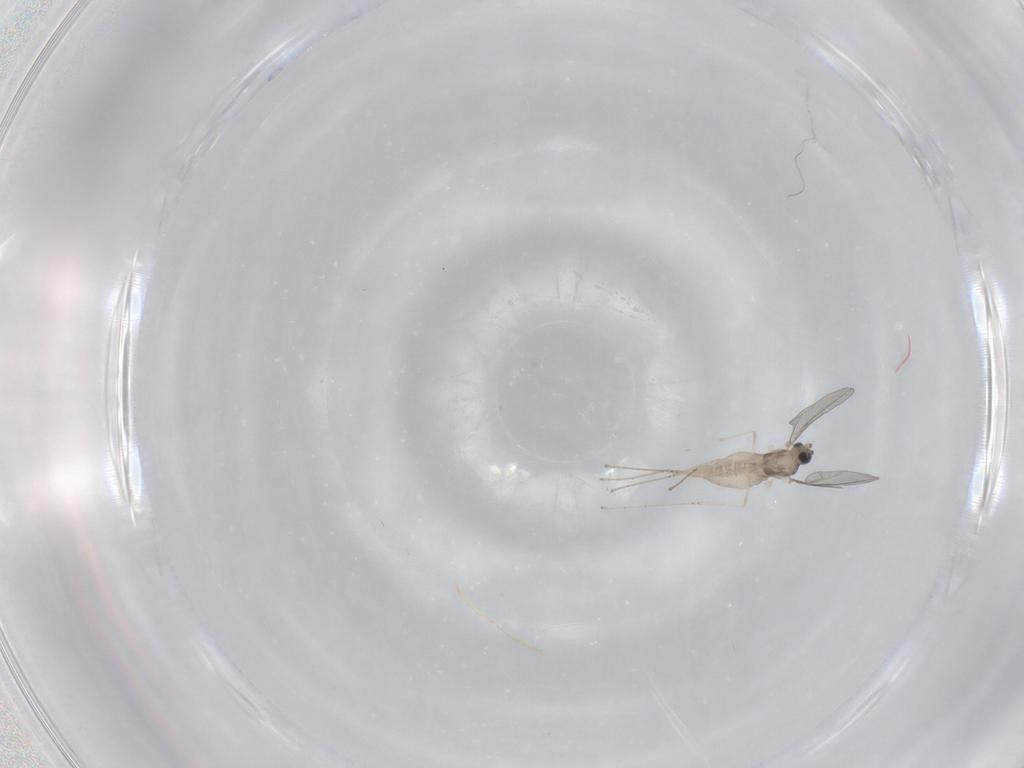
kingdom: Animalia
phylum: Arthropoda
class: Insecta
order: Diptera
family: Cecidomyiidae
